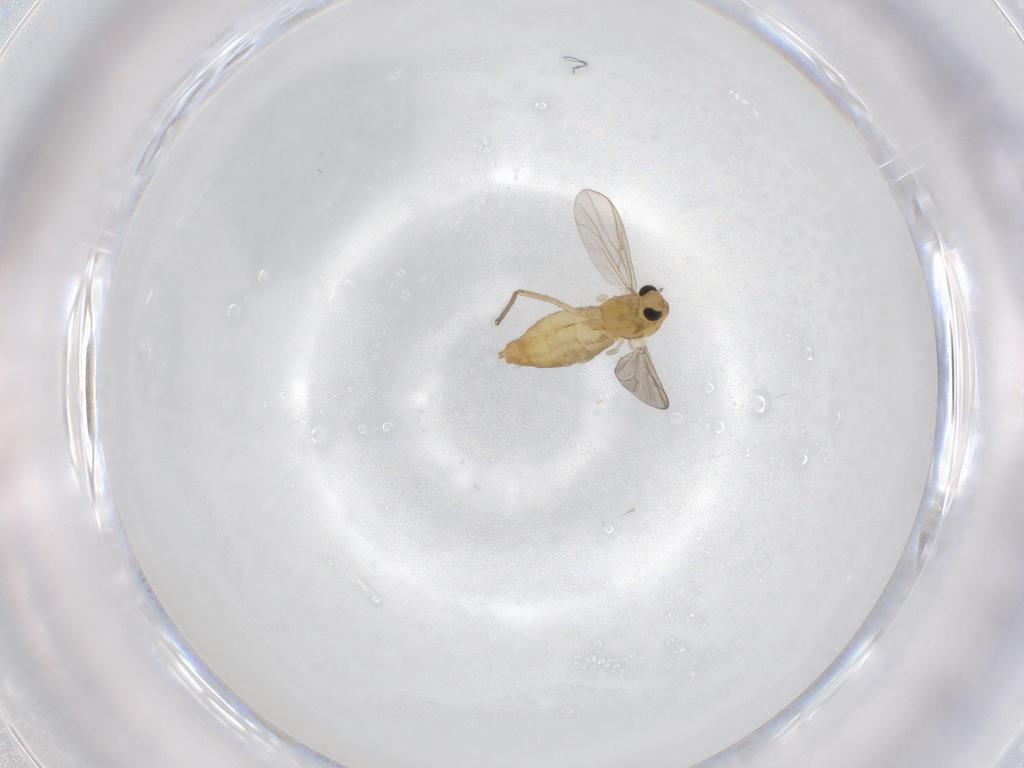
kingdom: Animalia
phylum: Arthropoda
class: Insecta
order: Diptera
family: Chironomidae
